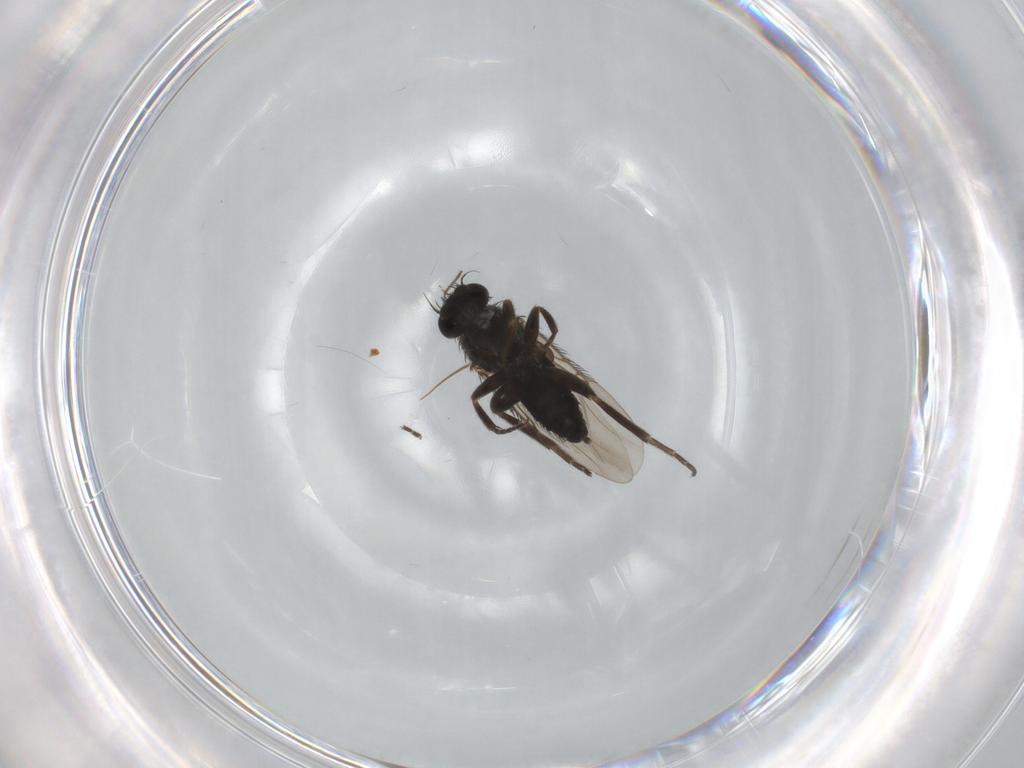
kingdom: Animalia
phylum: Arthropoda
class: Insecta
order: Diptera
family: Phoridae
